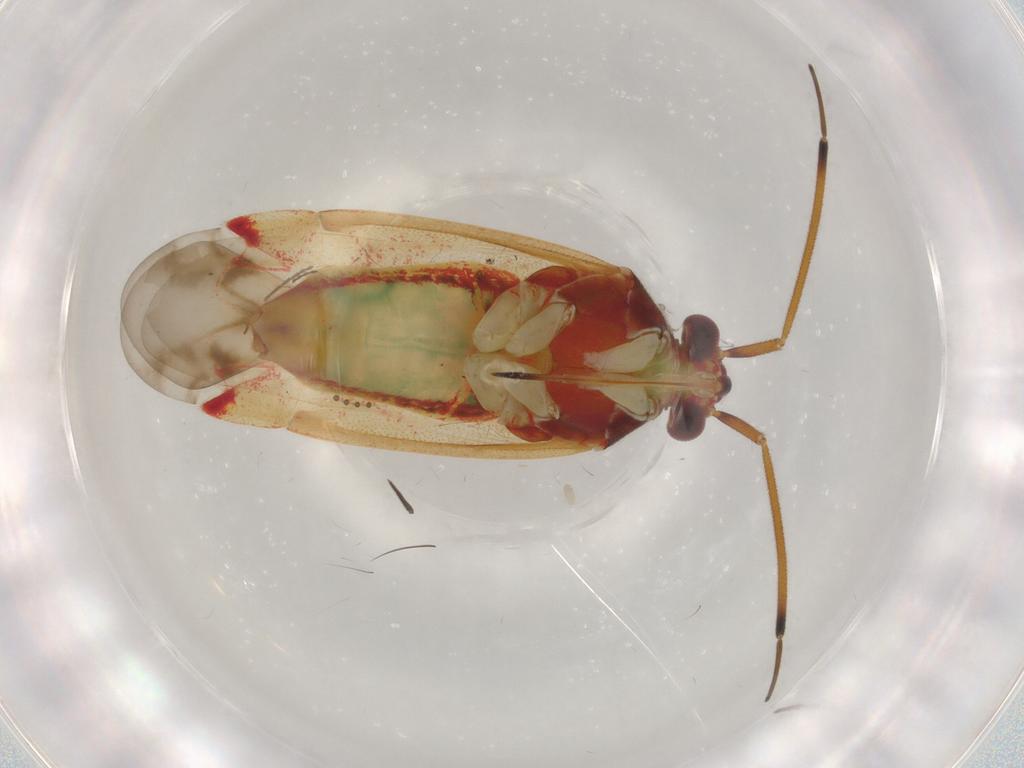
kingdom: Animalia
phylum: Arthropoda
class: Insecta
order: Hemiptera
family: Miridae
